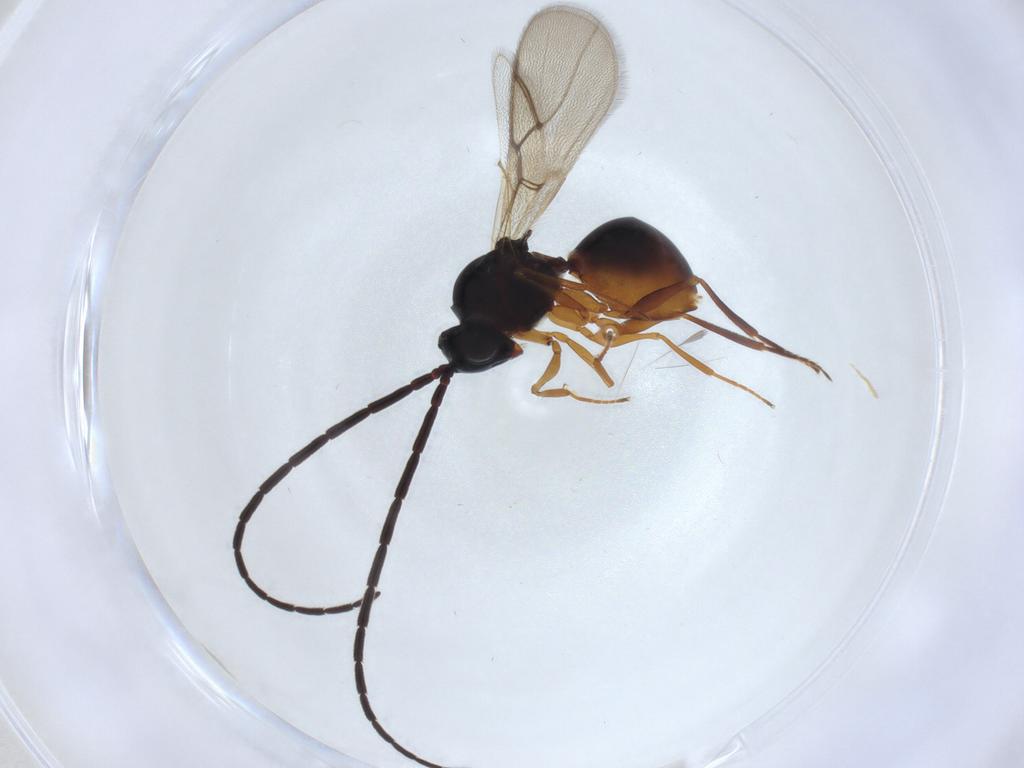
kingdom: Animalia
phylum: Arthropoda
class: Insecta
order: Hymenoptera
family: Figitidae
